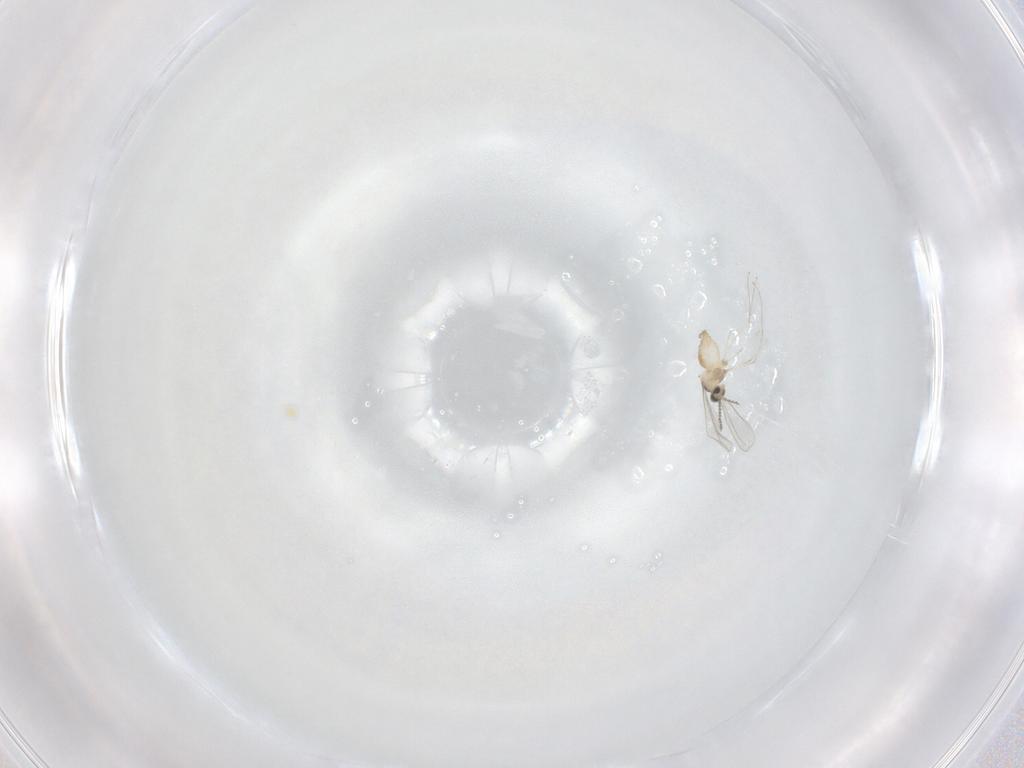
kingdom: Animalia
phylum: Arthropoda
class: Insecta
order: Diptera
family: Cecidomyiidae
